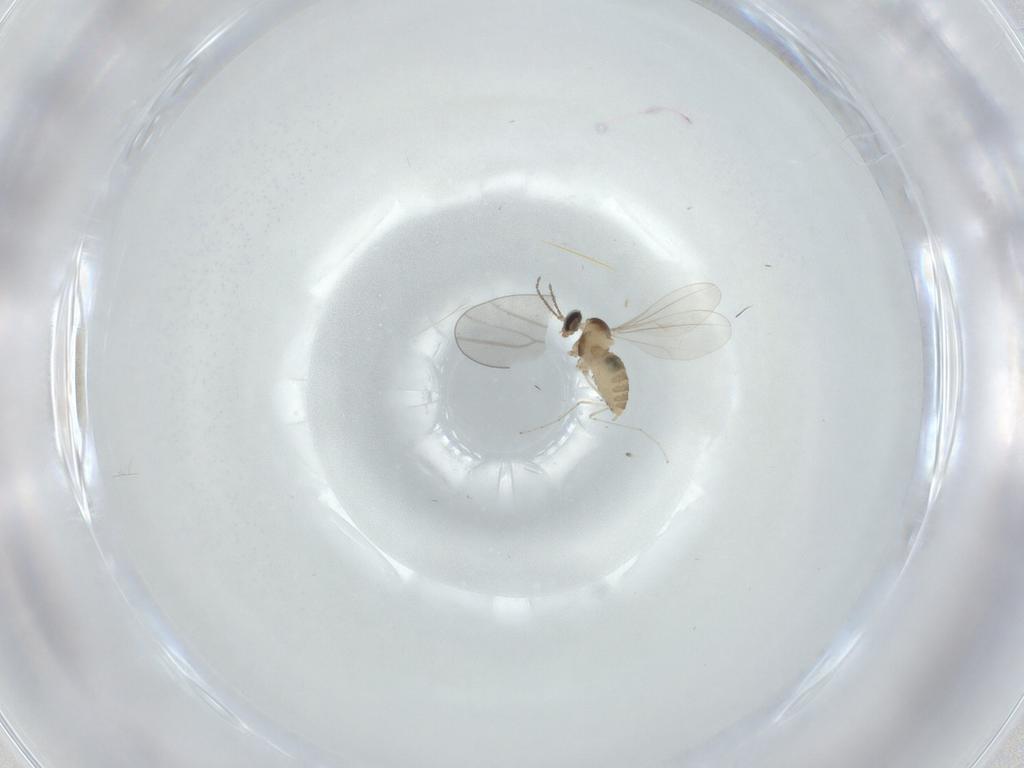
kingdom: Animalia
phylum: Arthropoda
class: Insecta
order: Diptera
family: Cecidomyiidae
